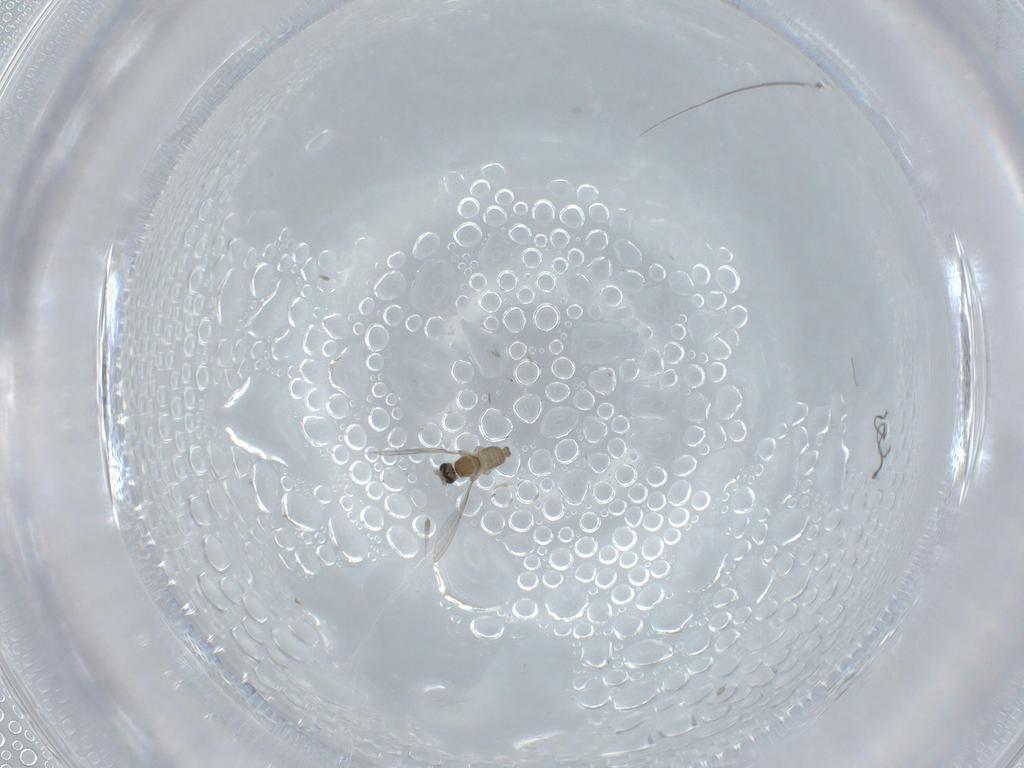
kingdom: Animalia
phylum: Arthropoda
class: Insecta
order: Diptera
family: Cecidomyiidae
